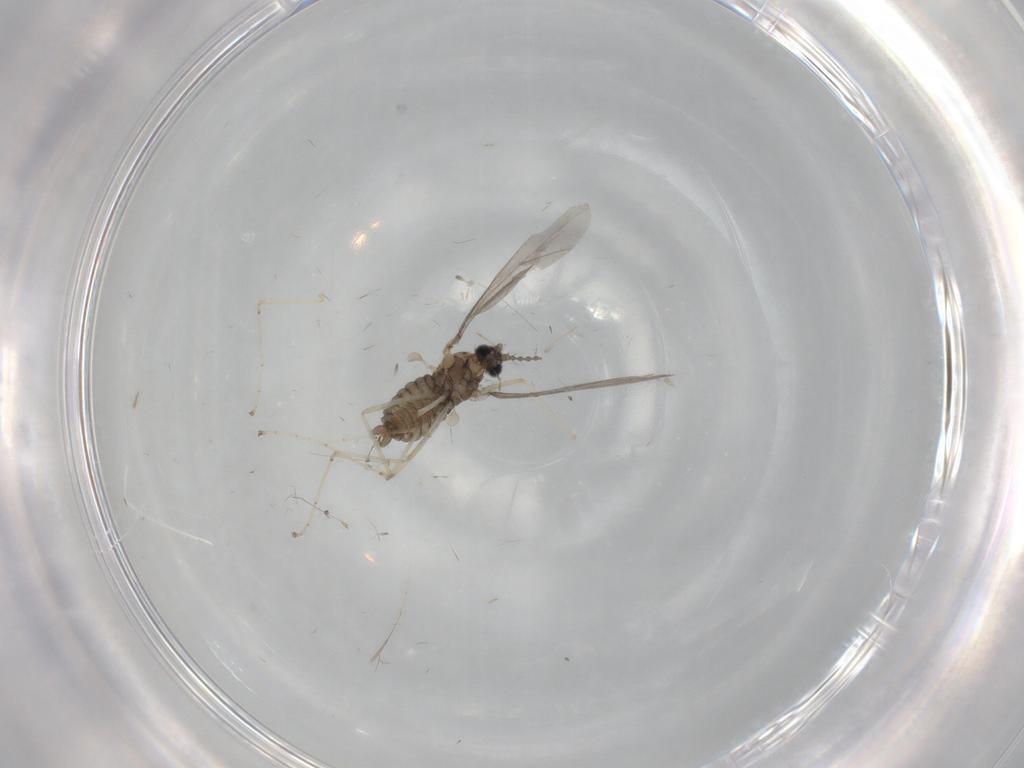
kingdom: Animalia
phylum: Arthropoda
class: Insecta
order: Diptera
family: Cecidomyiidae
